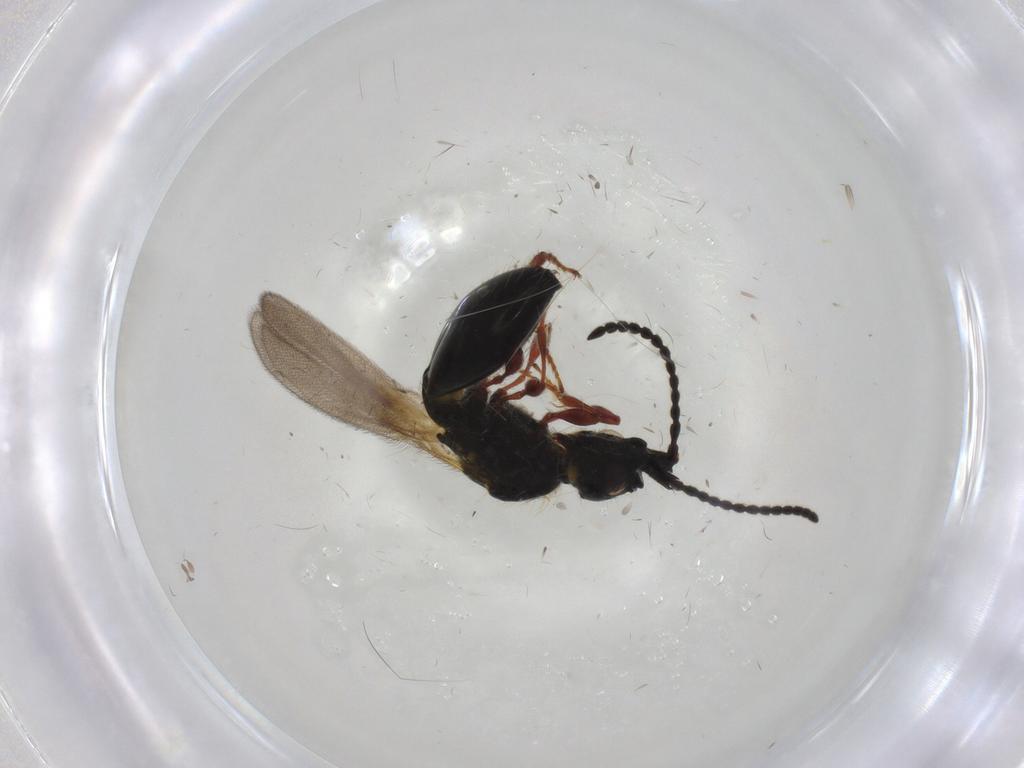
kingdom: Animalia
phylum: Arthropoda
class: Insecta
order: Hymenoptera
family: Diapriidae
